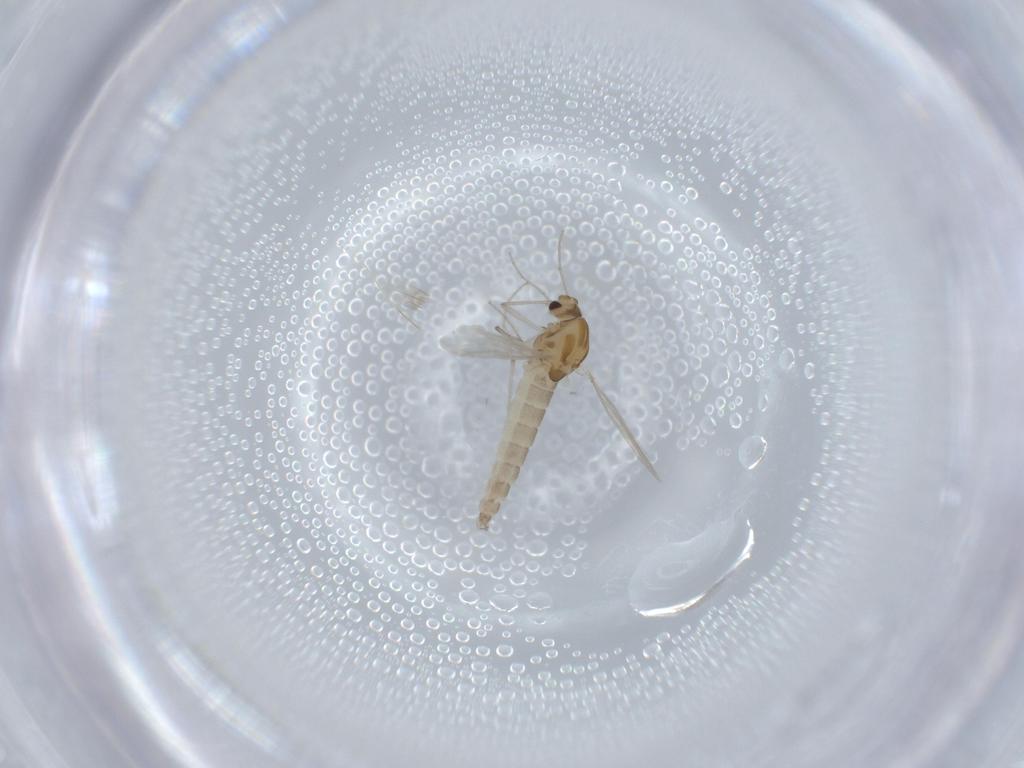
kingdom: Animalia
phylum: Arthropoda
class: Insecta
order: Diptera
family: Chironomidae
